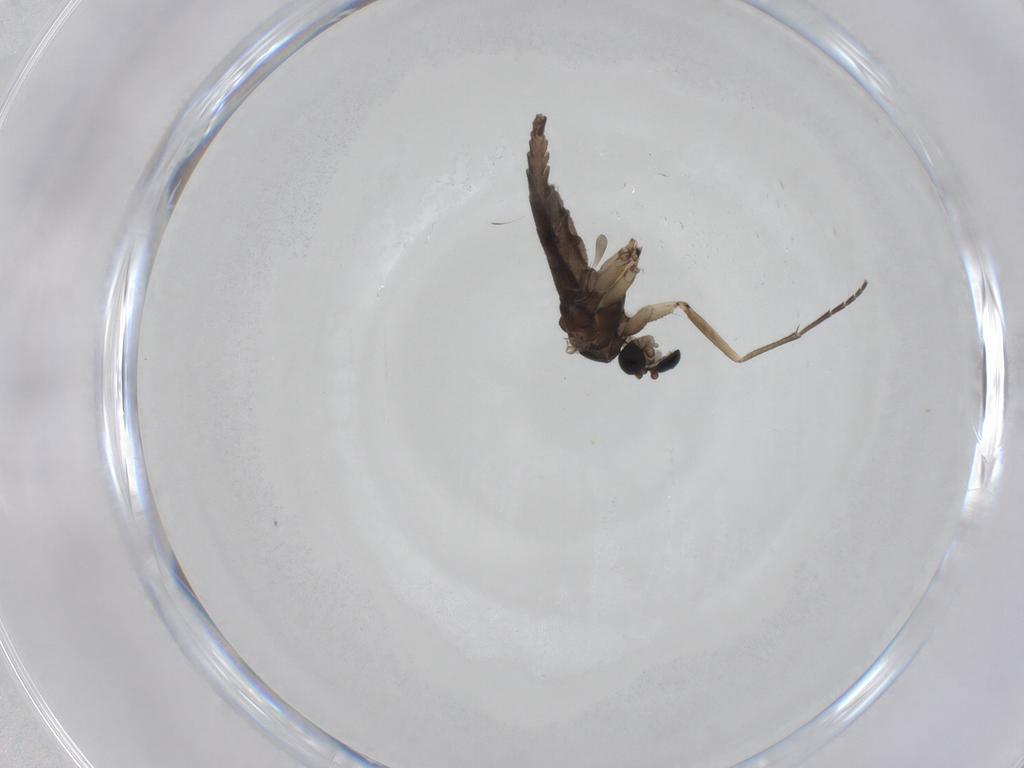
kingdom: Animalia
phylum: Arthropoda
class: Insecta
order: Diptera
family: Sciaridae
